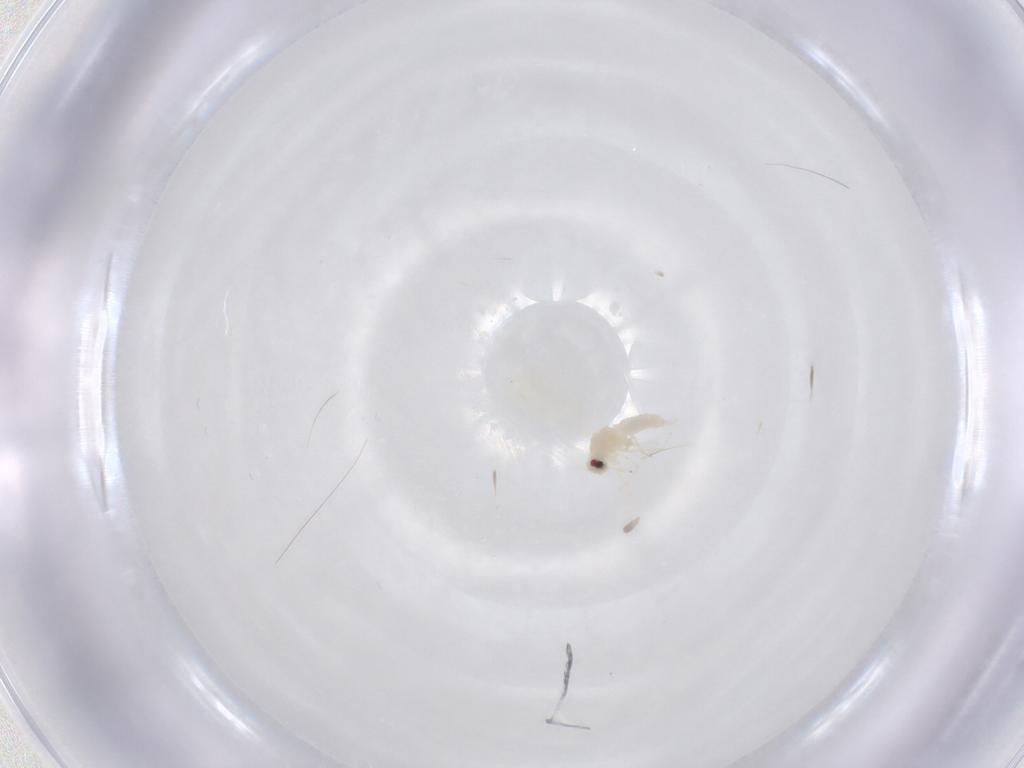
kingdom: Animalia
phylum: Arthropoda
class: Insecta
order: Hemiptera
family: Aleyrodidae
